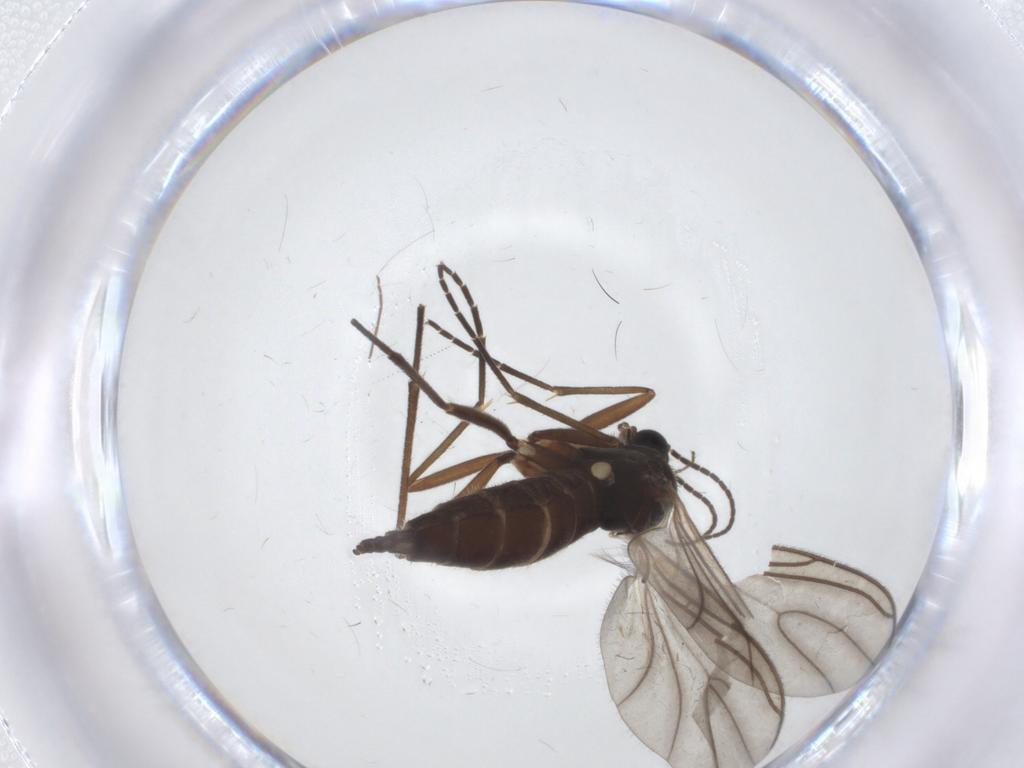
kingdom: Animalia
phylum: Arthropoda
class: Insecta
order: Diptera
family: Sciaridae
